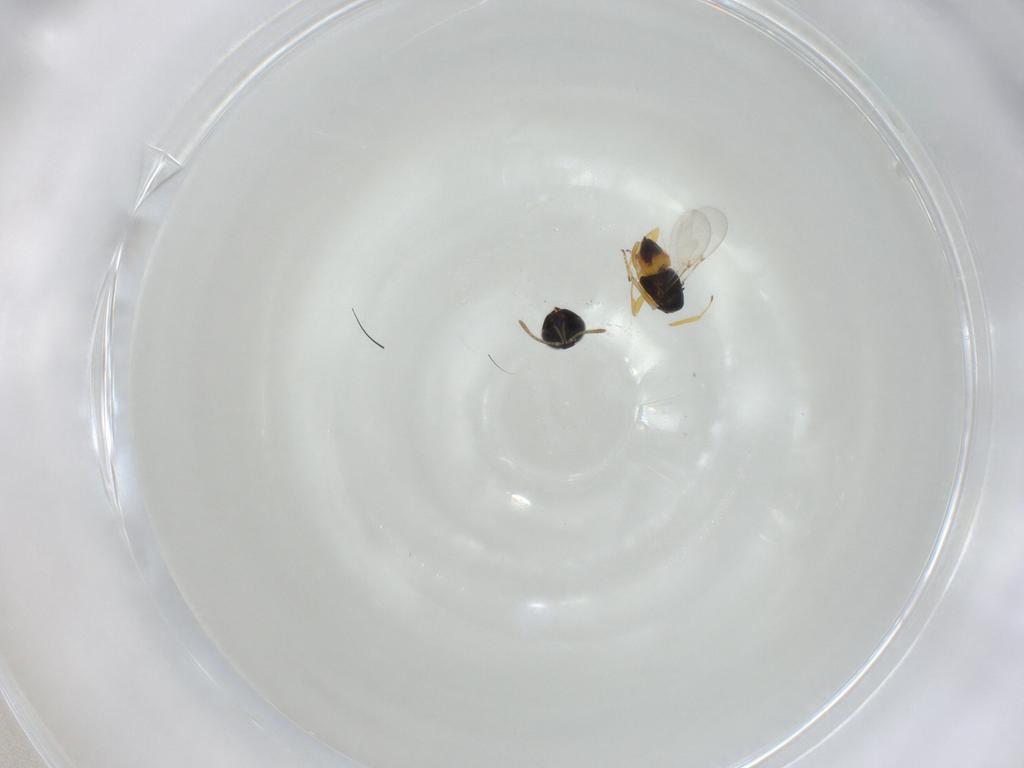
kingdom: Animalia
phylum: Arthropoda
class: Insecta
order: Hymenoptera
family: Encyrtidae
